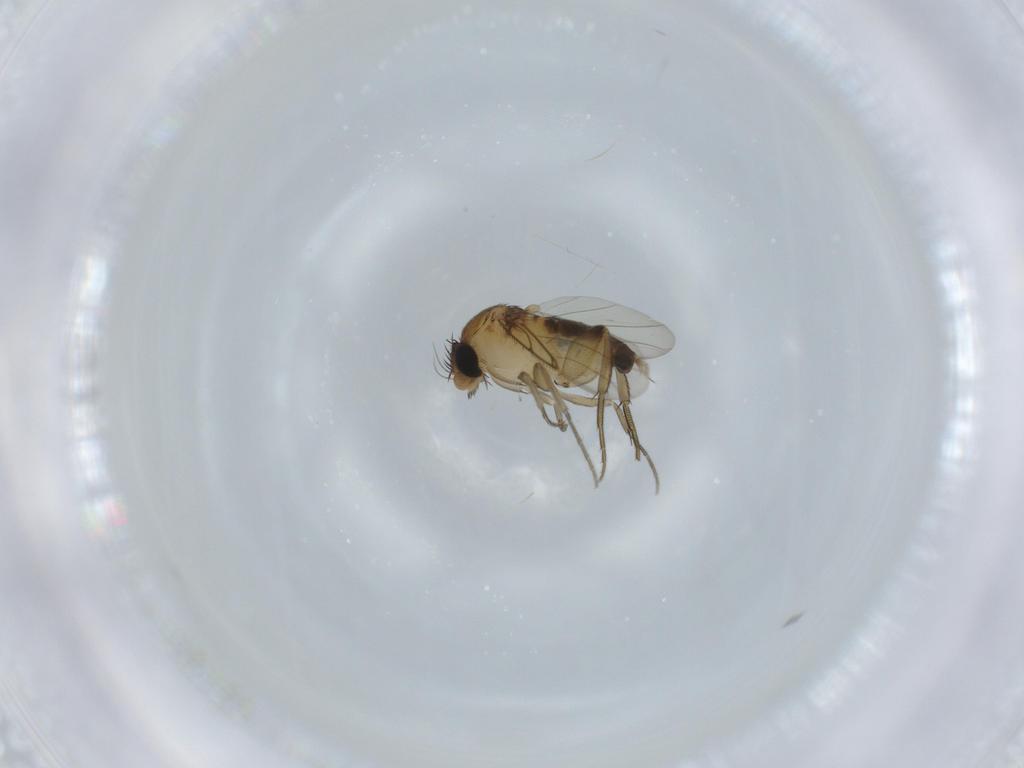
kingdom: Animalia
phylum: Arthropoda
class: Insecta
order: Diptera
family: Phoridae
